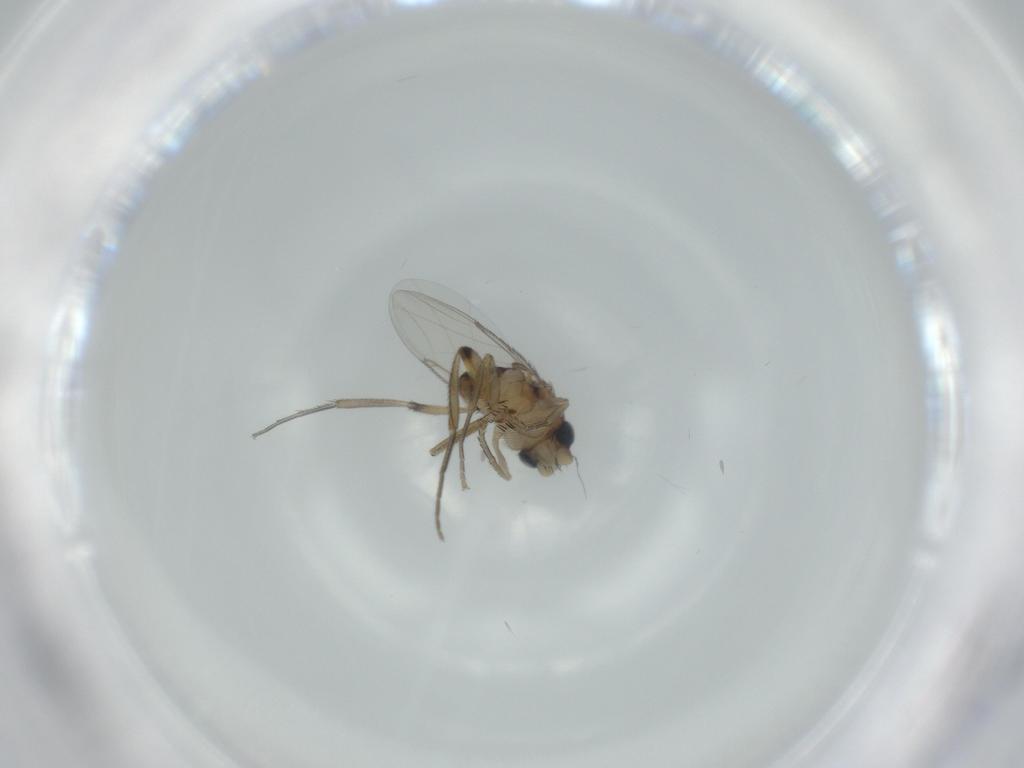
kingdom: Animalia
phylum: Arthropoda
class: Insecta
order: Diptera
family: Phoridae
